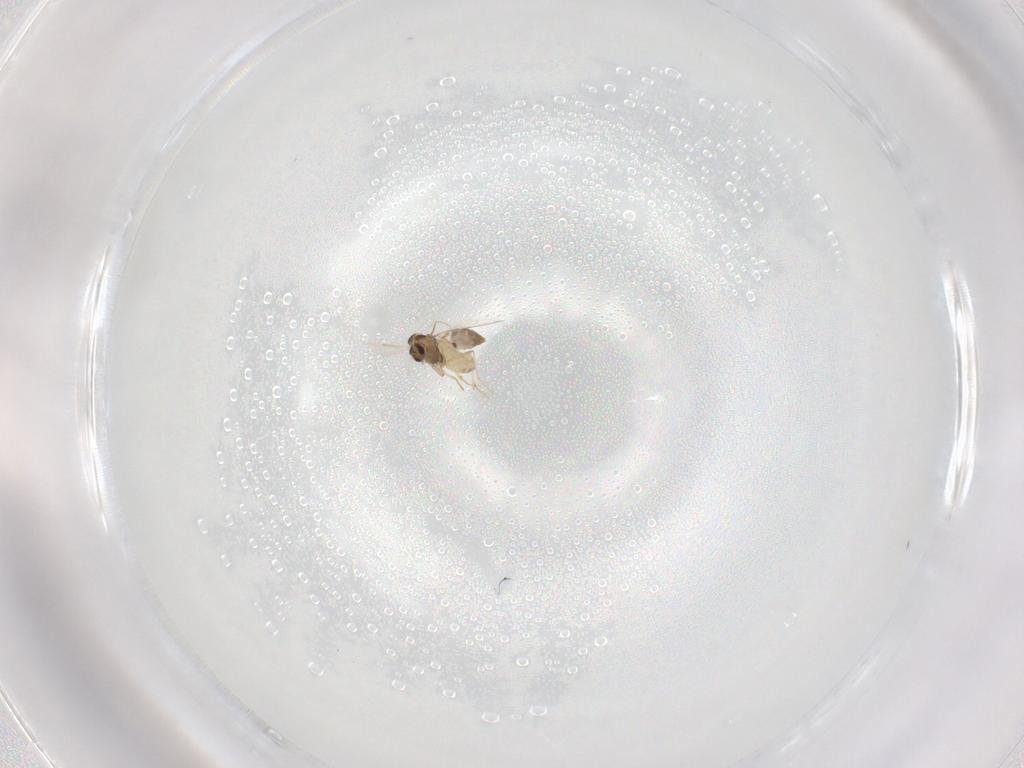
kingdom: Animalia
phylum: Arthropoda
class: Insecta
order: Diptera
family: Chironomidae
